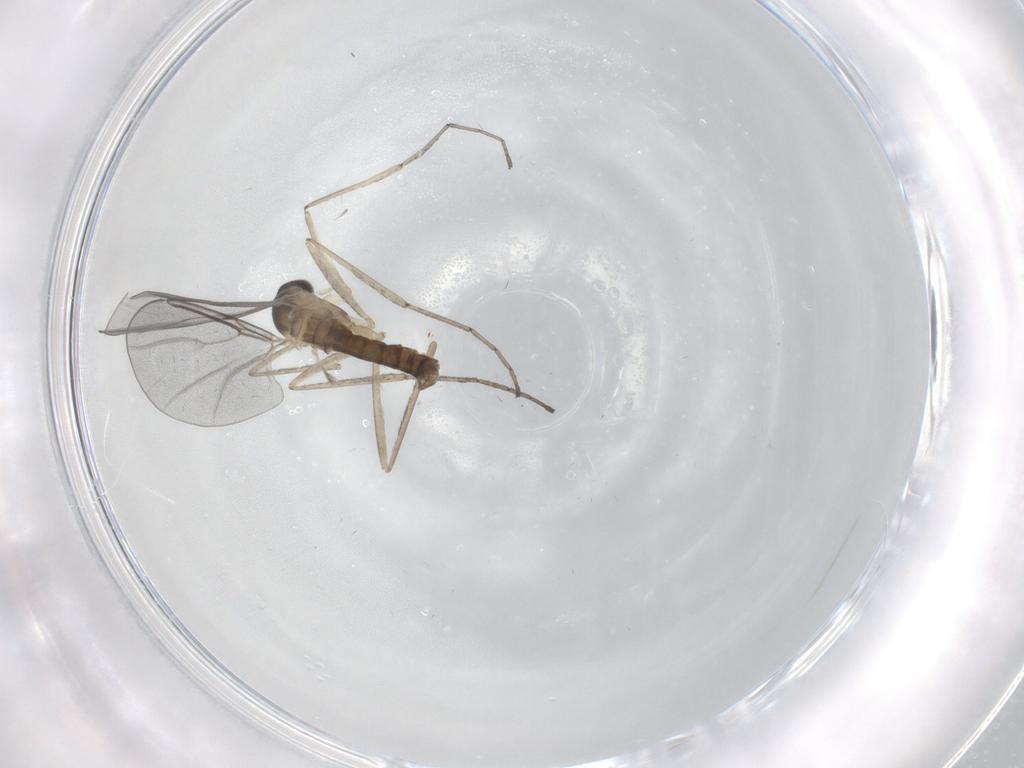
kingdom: Animalia
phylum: Arthropoda
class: Insecta
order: Diptera
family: Cecidomyiidae
